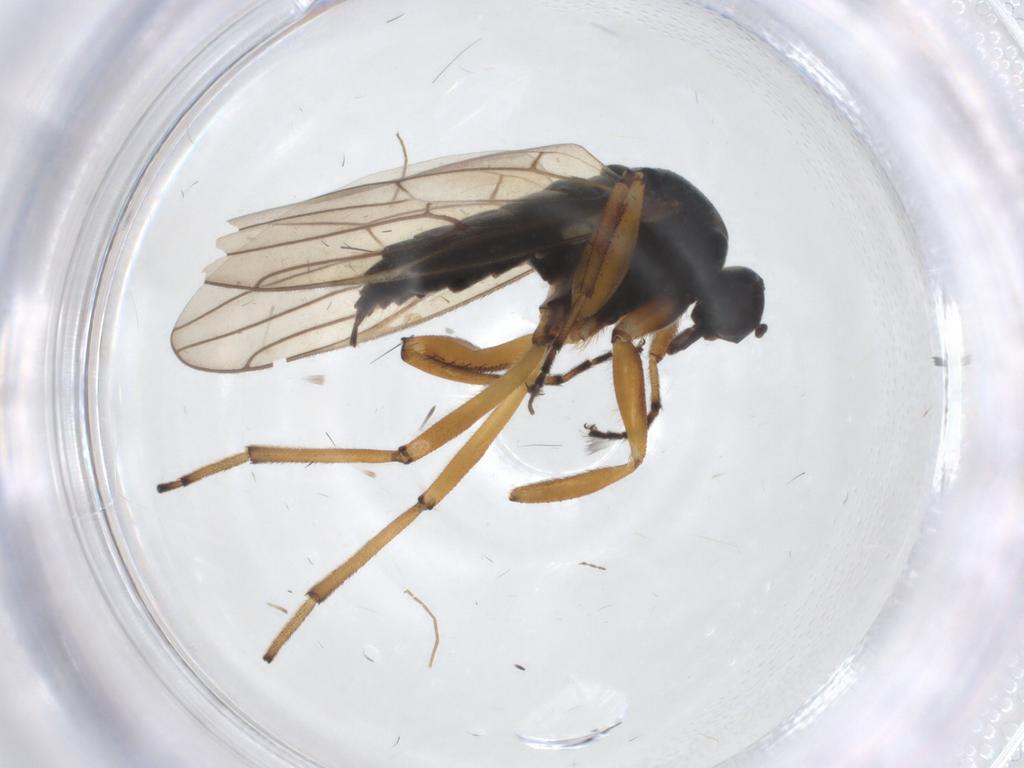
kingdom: Animalia
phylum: Arthropoda
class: Insecta
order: Diptera
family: Hybotidae
